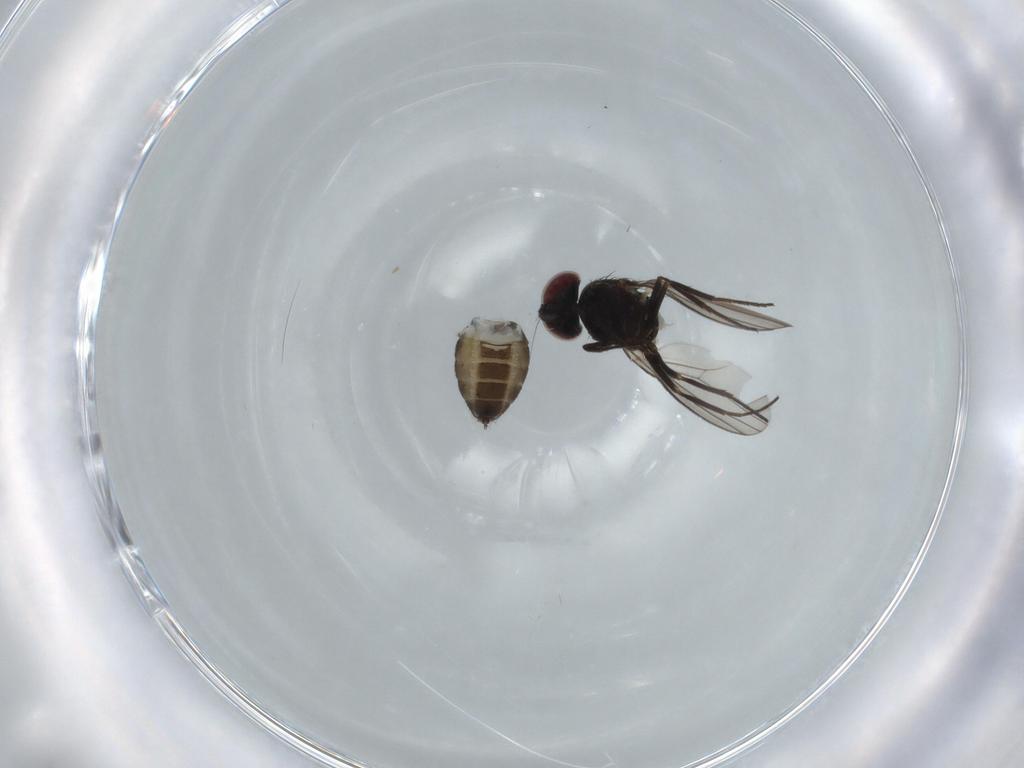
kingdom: Animalia
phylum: Arthropoda
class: Insecta
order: Diptera
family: Dolichopodidae
